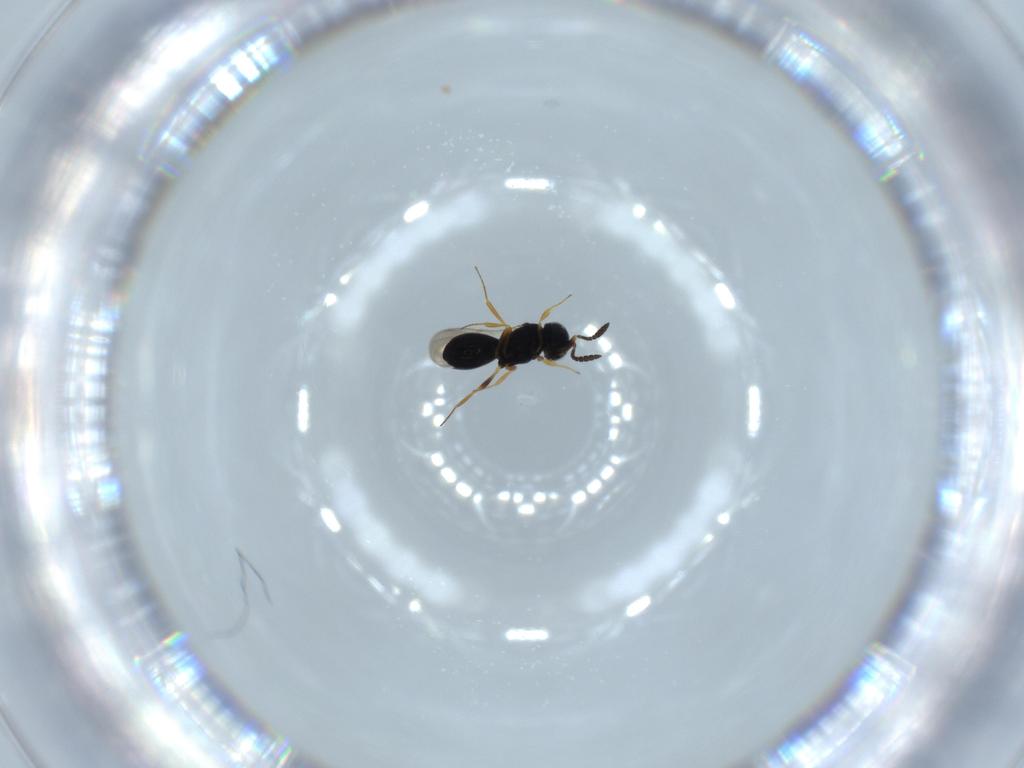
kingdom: Animalia
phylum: Arthropoda
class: Insecta
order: Hymenoptera
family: Scelionidae
